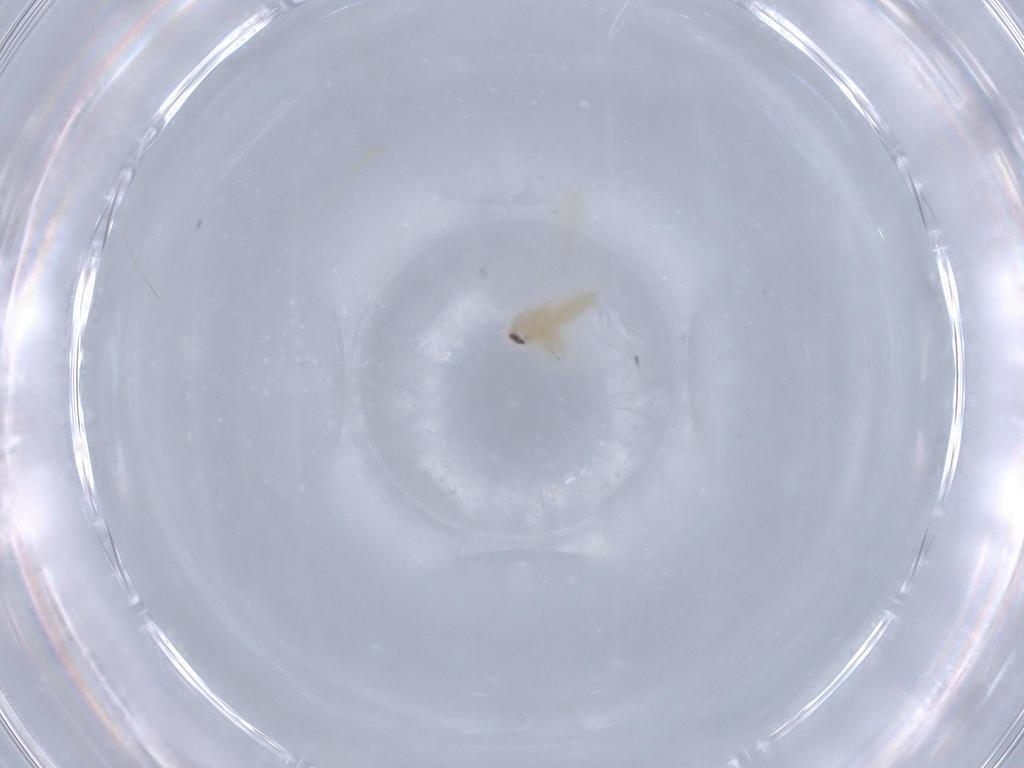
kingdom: Animalia
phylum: Arthropoda
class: Insecta
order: Hemiptera
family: Aleyrodidae
